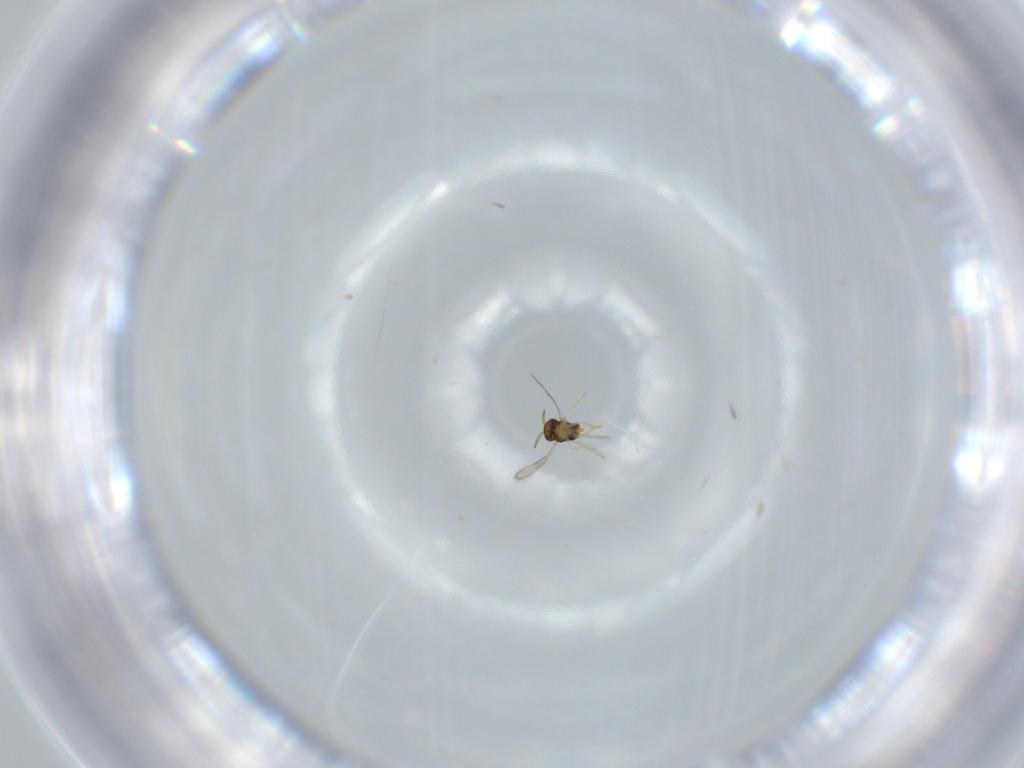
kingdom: Animalia
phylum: Arthropoda
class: Insecta
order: Hymenoptera
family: Aphelinidae
